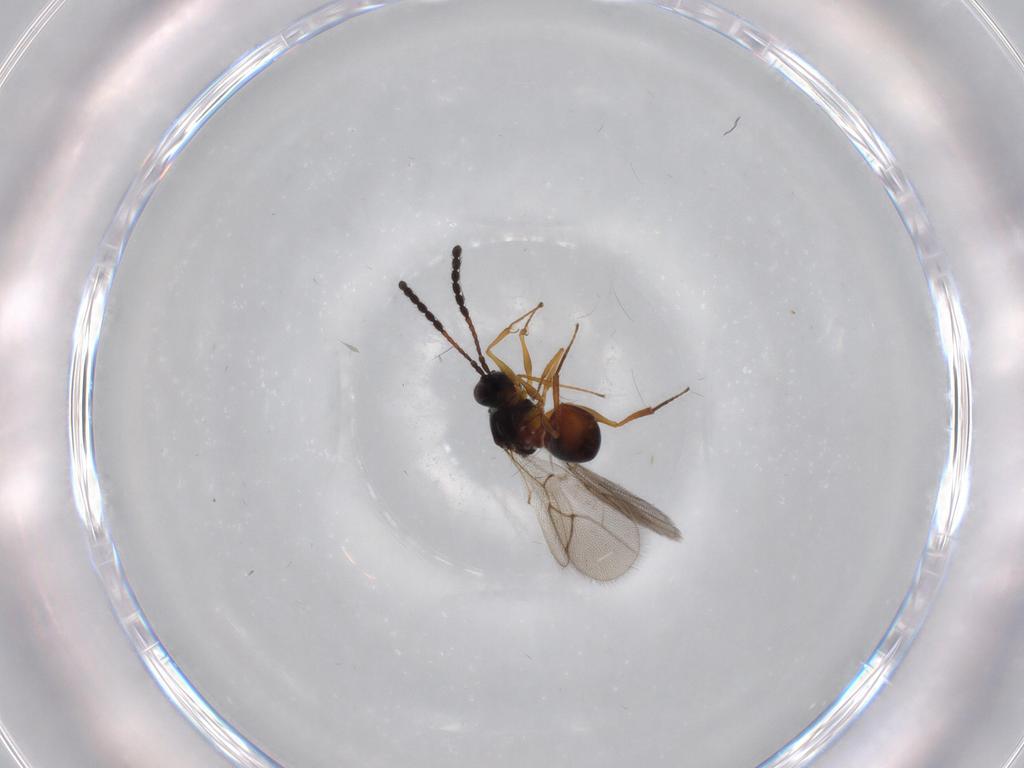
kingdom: Animalia
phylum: Arthropoda
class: Insecta
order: Hymenoptera
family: Figitidae
